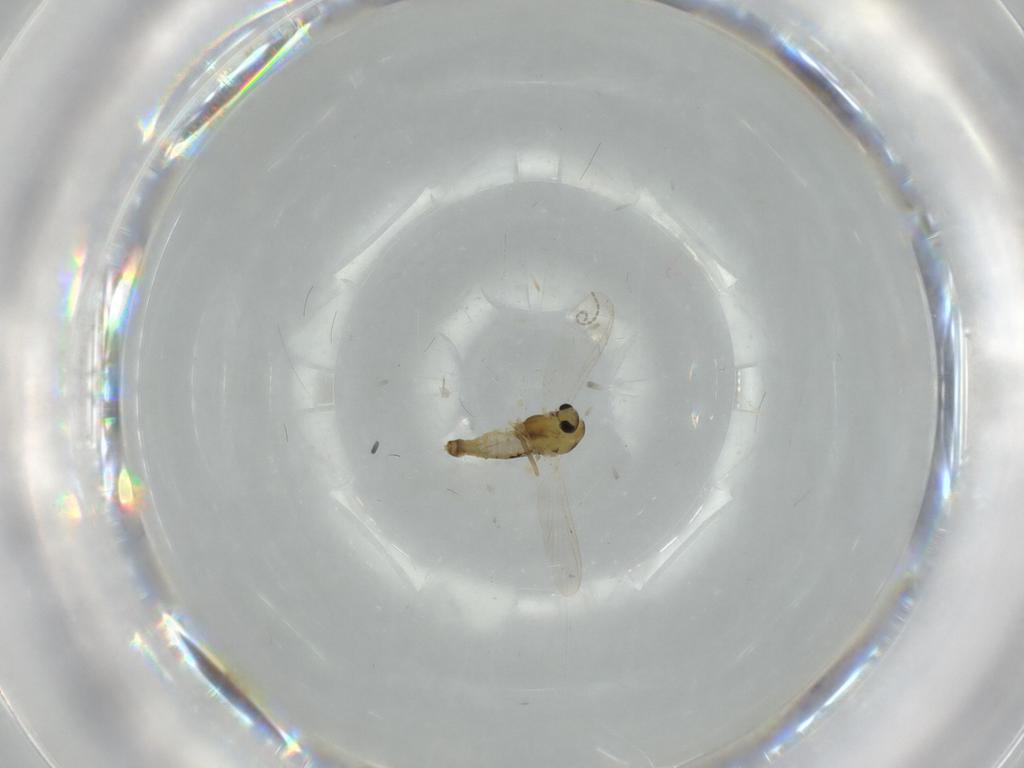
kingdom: Animalia
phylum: Arthropoda
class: Insecta
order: Diptera
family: Cecidomyiidae
